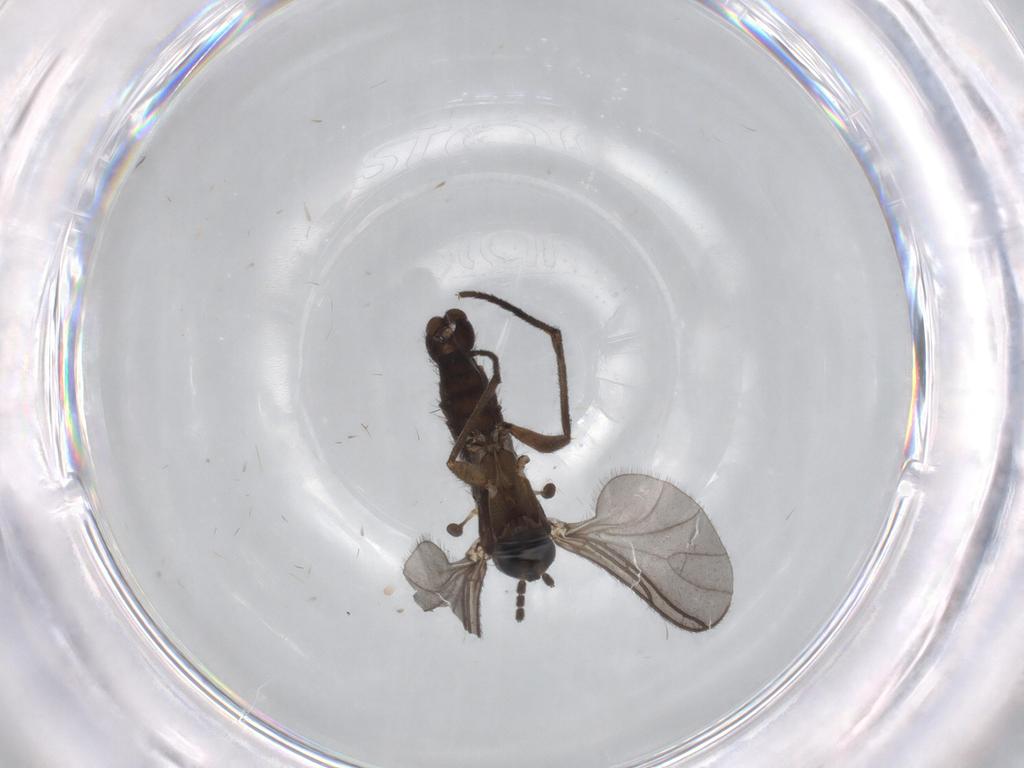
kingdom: Animalia
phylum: Arthropoda
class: Insecta
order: Diptera
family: Sciaridae
